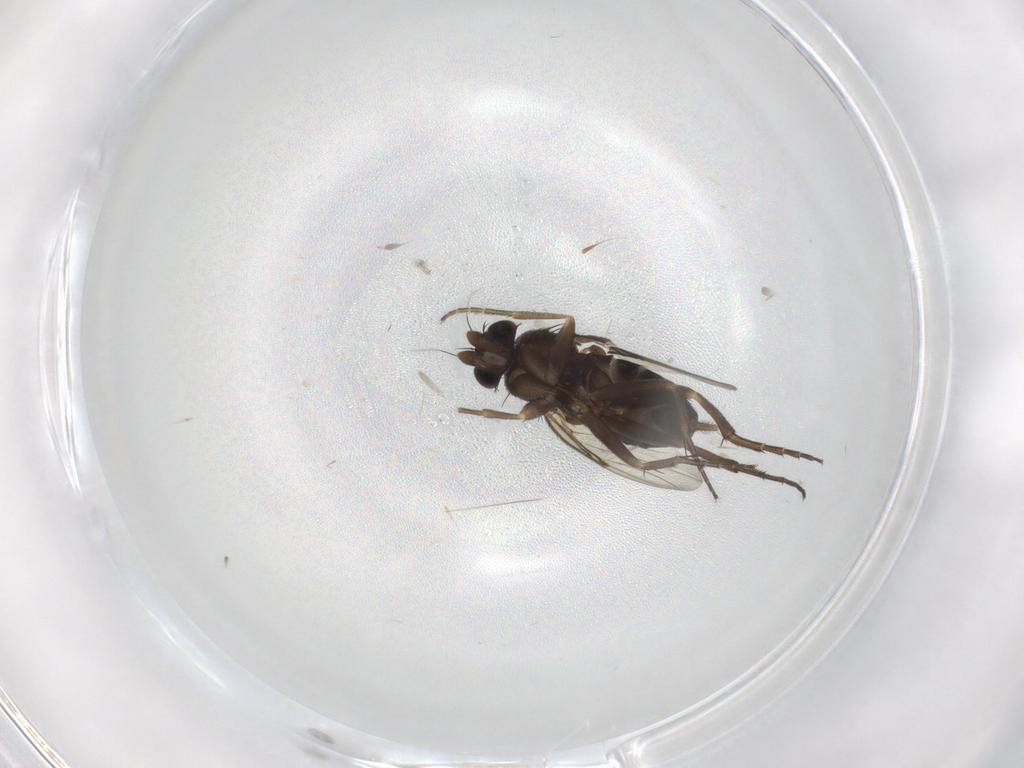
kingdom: Animalia
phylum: Arthropoda
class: Insecta
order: Diptera
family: Phoridae
